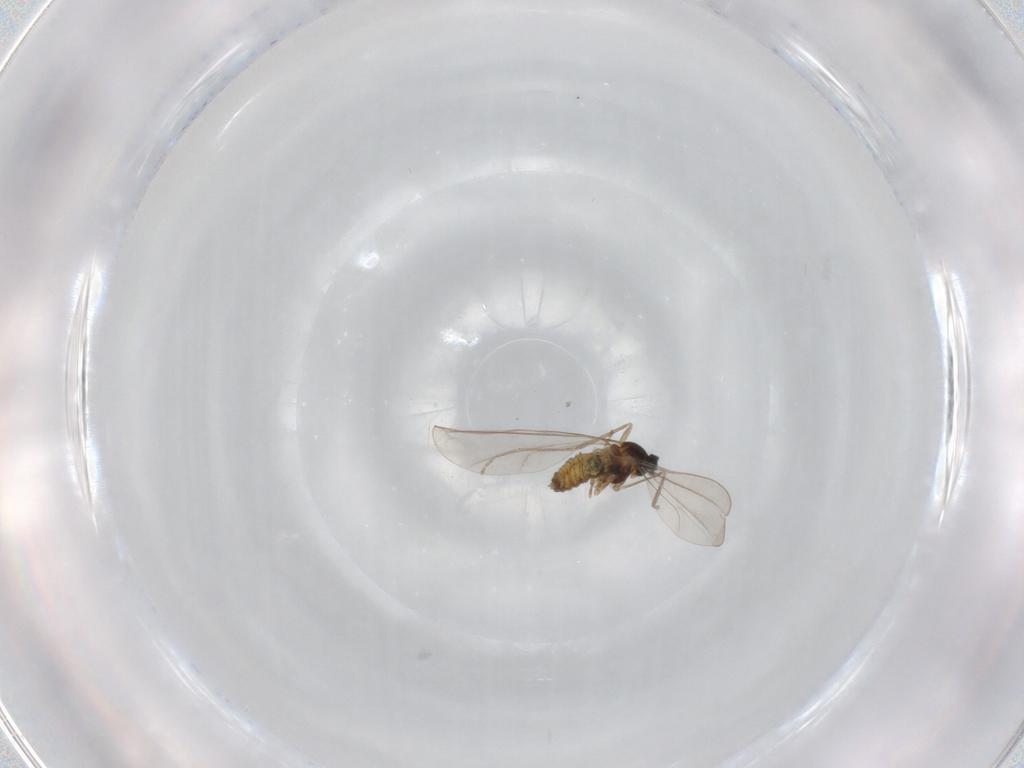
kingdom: Animalia
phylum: Arthropoda
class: Insecta
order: Diptera
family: Cecidomyiidae
